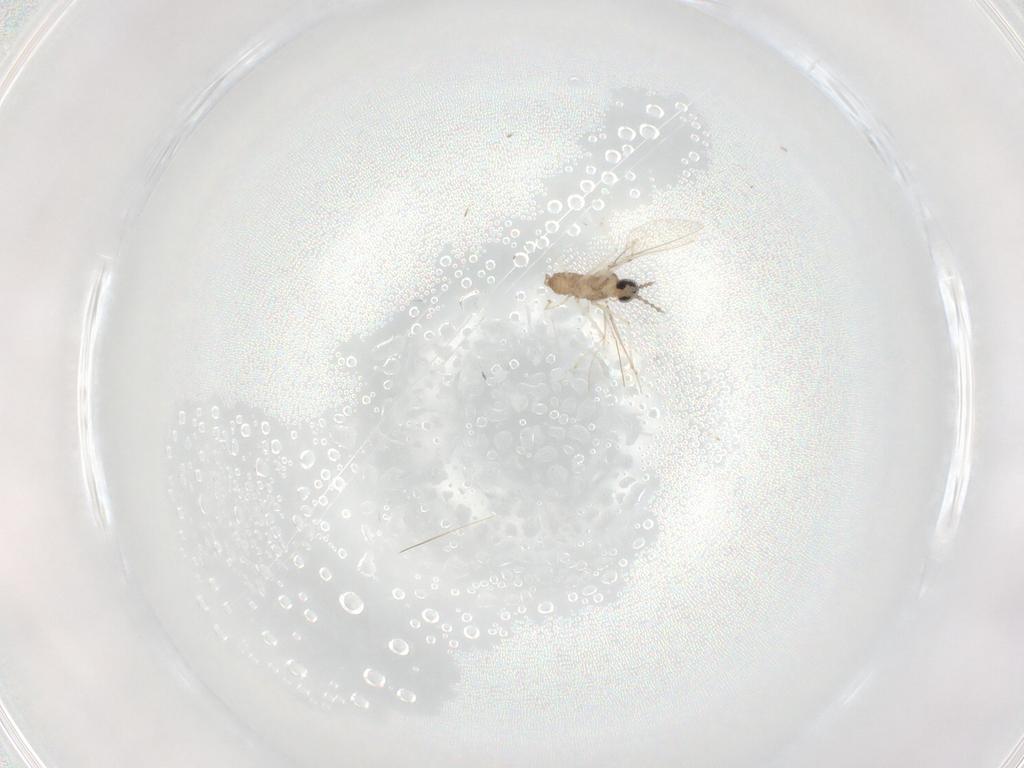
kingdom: Animalia
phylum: Arthropoda
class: Insecta
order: Diptera
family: Cecidomyiidae
